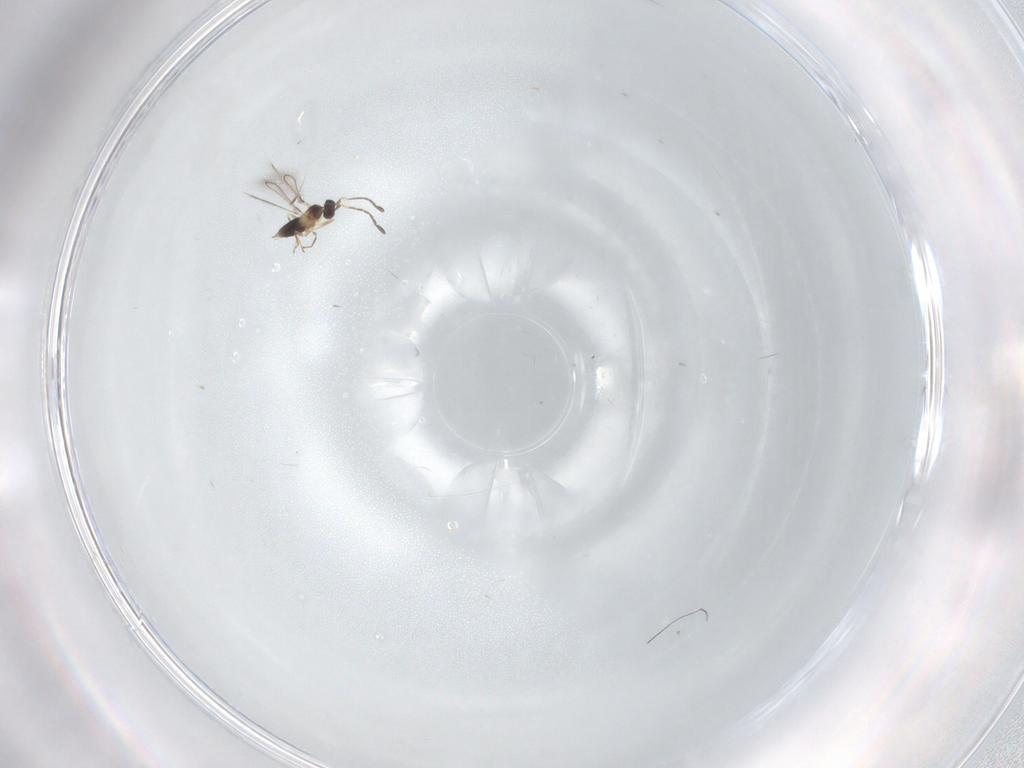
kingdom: Animalia
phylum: Arthropoda
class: Insecta
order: Hymenoptera
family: Mymaridae
